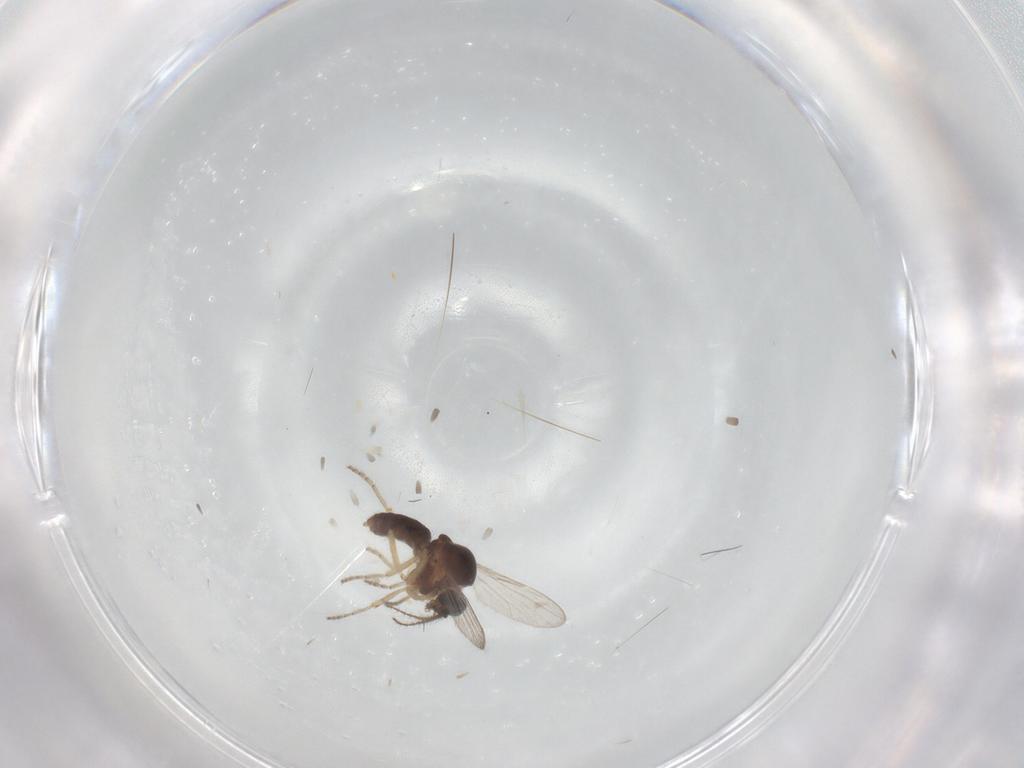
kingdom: Animalia
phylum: Arthropoda
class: Insecta
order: Diptera
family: Ceratopogonidae
